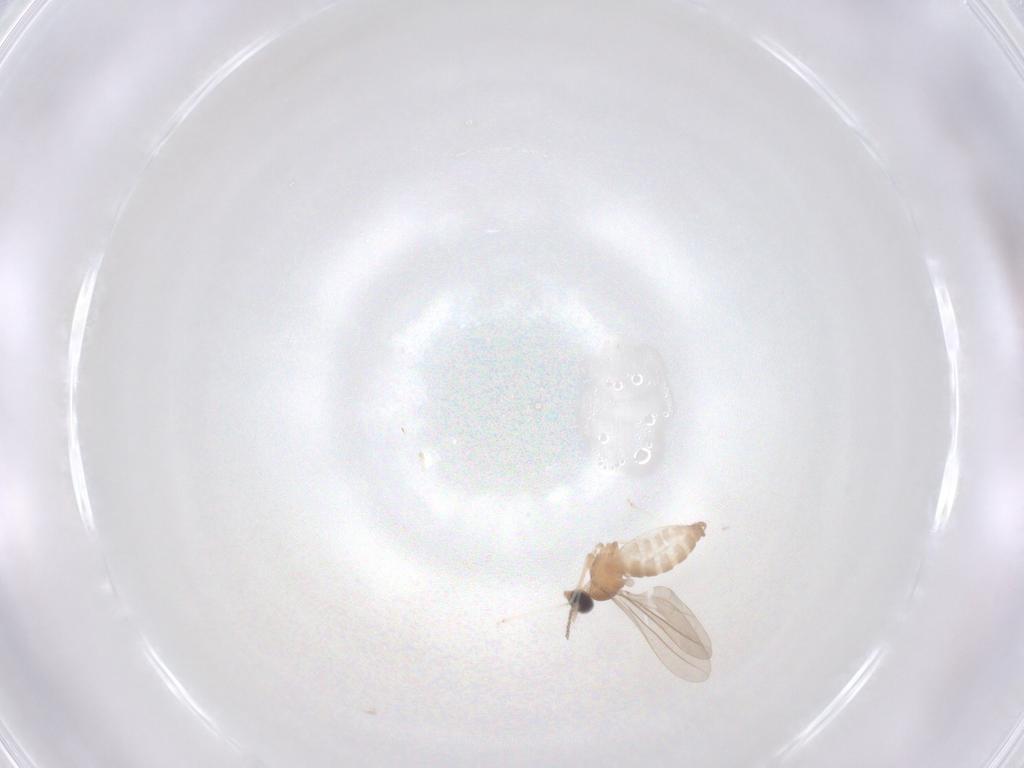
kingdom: Animalia
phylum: Arthropoda
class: Insecta
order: Diptera
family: Cecidomyiidae
